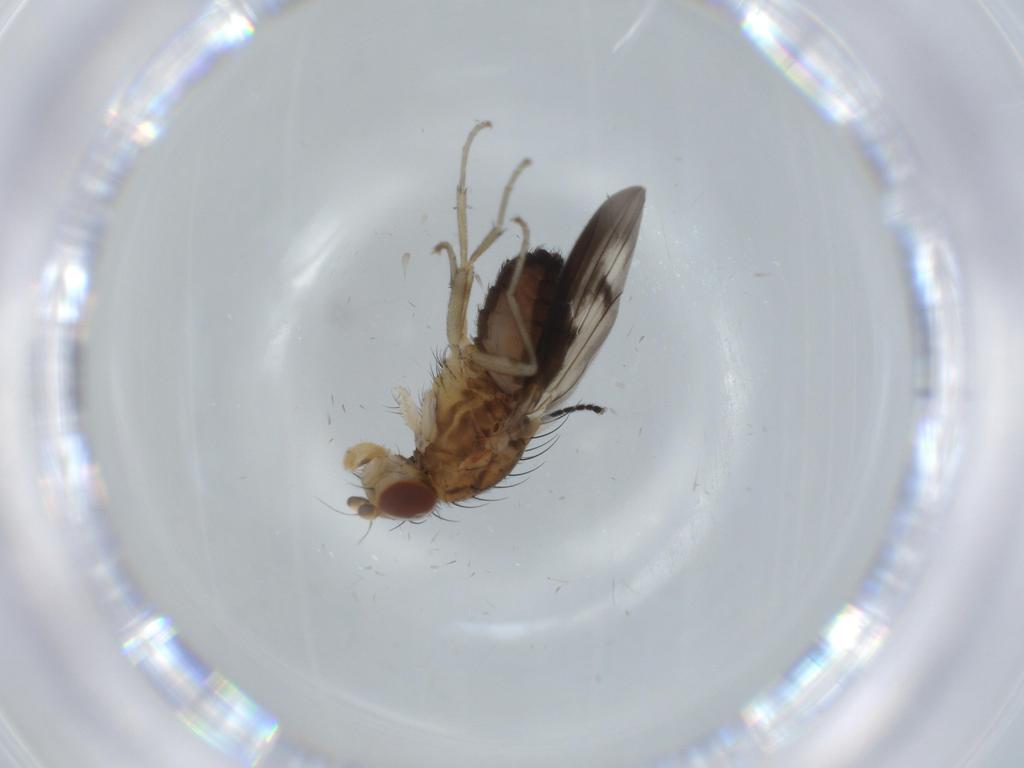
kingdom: Animalia
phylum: Arthropoda
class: Insecta
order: Diptera
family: Milichiidae
